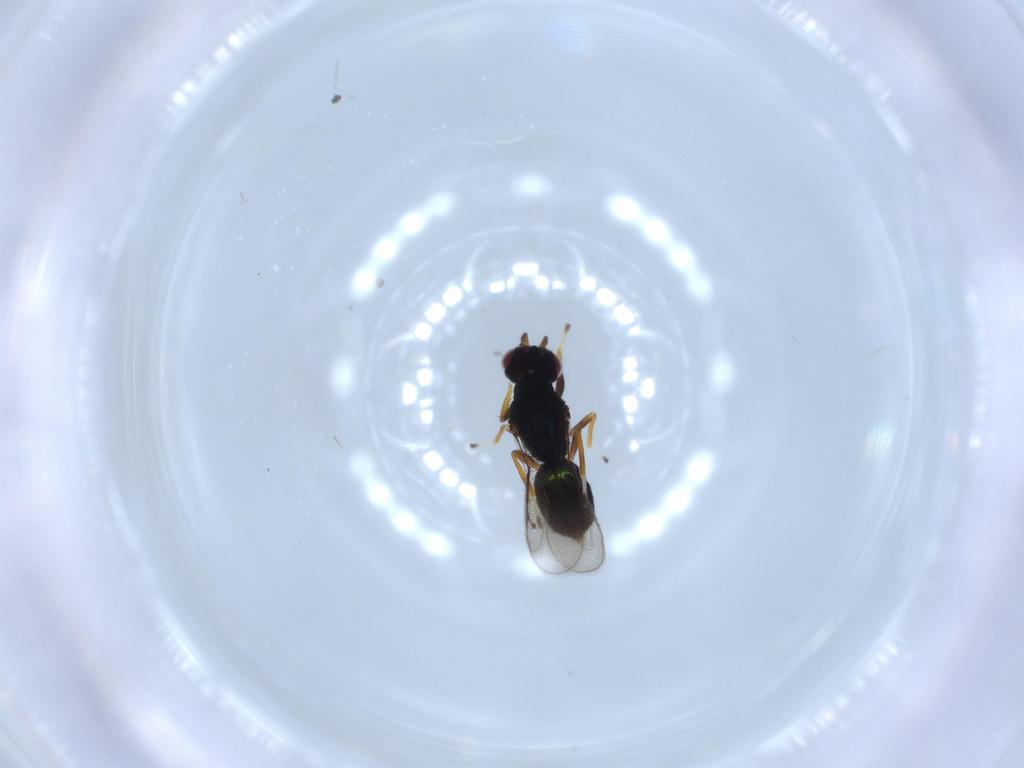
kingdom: Animalia
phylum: Arthropoda
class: Insecta
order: Hymenoptera
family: Eulophidae
